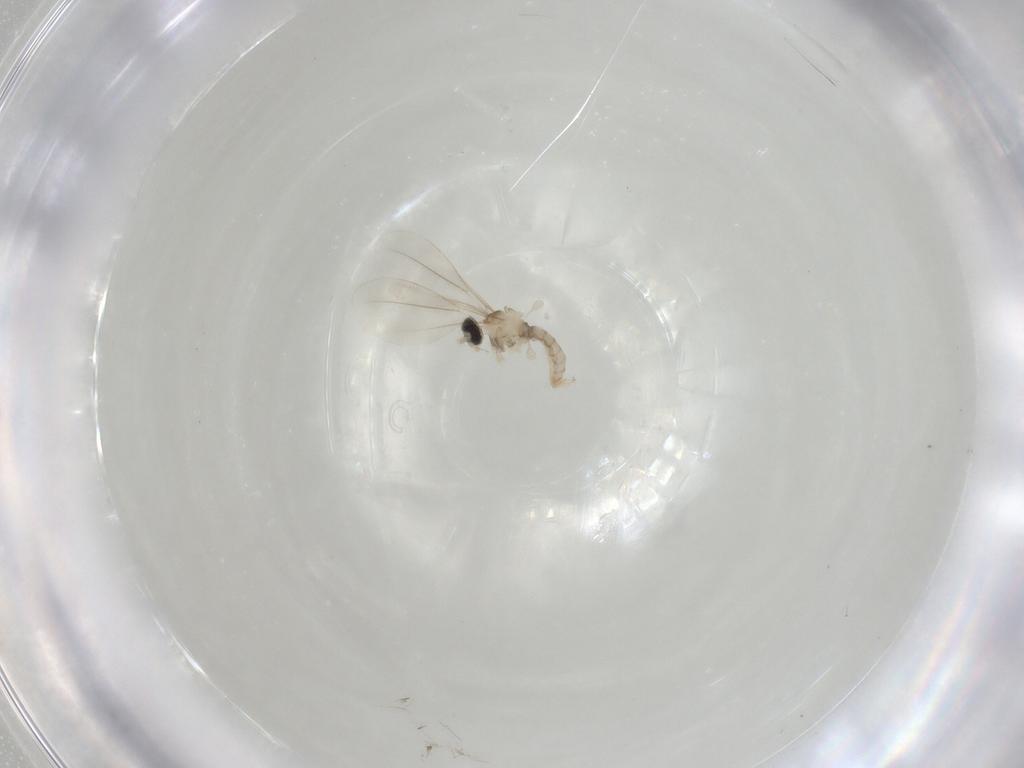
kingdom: Animalia
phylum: Arthropoda
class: Insecta
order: Diptera
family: Cecidomyiidae
